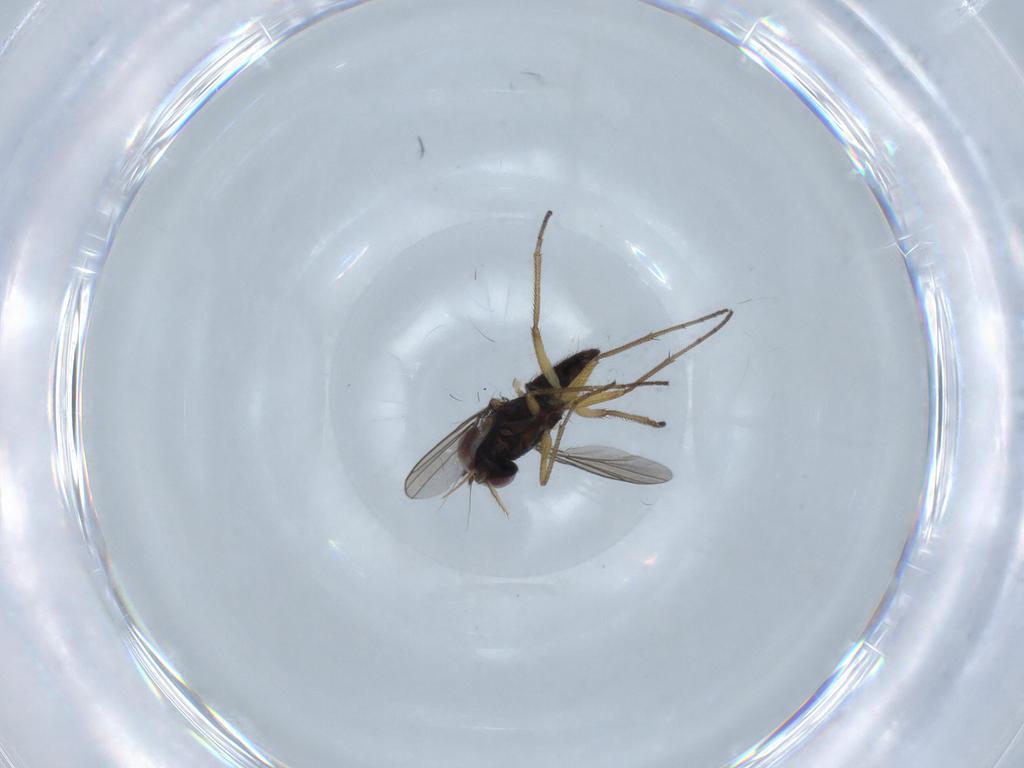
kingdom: Animalia
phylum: Arthropoda
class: Insecta
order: Diptera
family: Dolichopodidae
